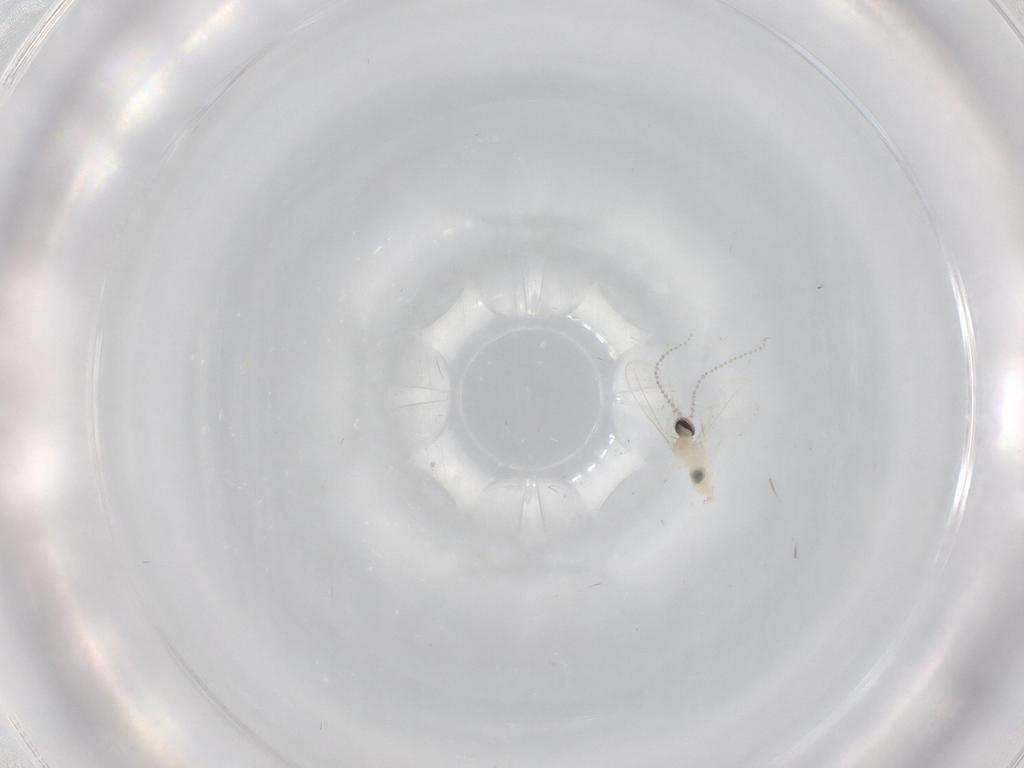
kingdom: Animalia
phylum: Arthropoda
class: Insecta
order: Diptera
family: Cecidomyiidae
